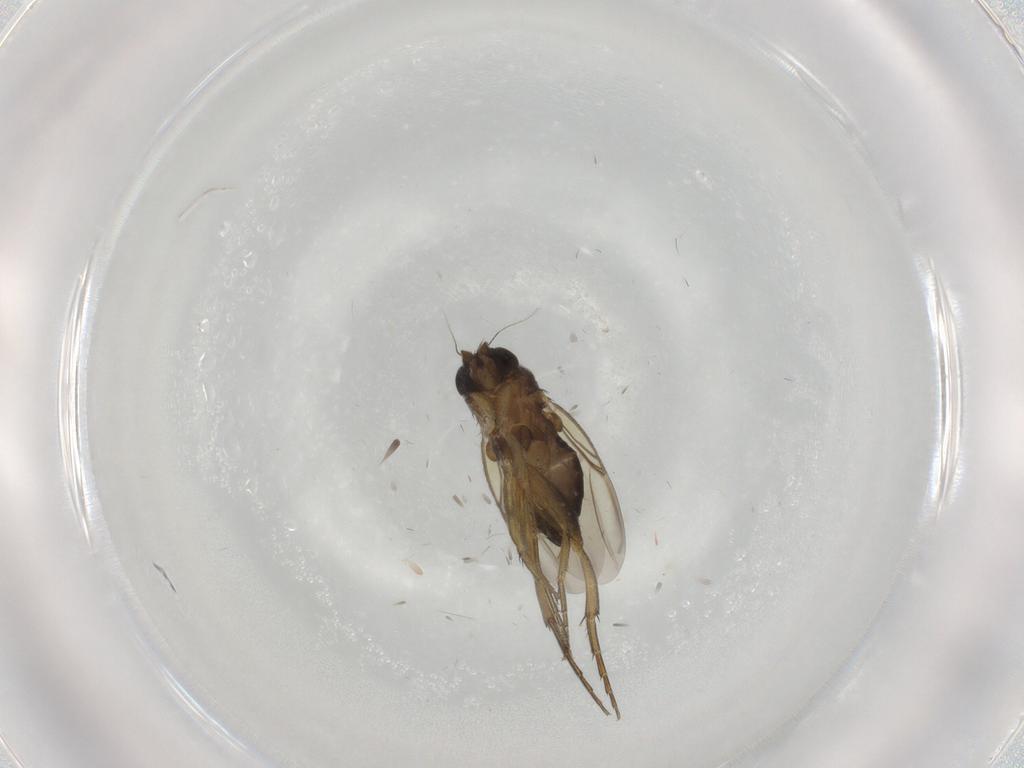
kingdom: Animalia
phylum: Arthropoda
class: Insecta
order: Diptera
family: Phoridae
